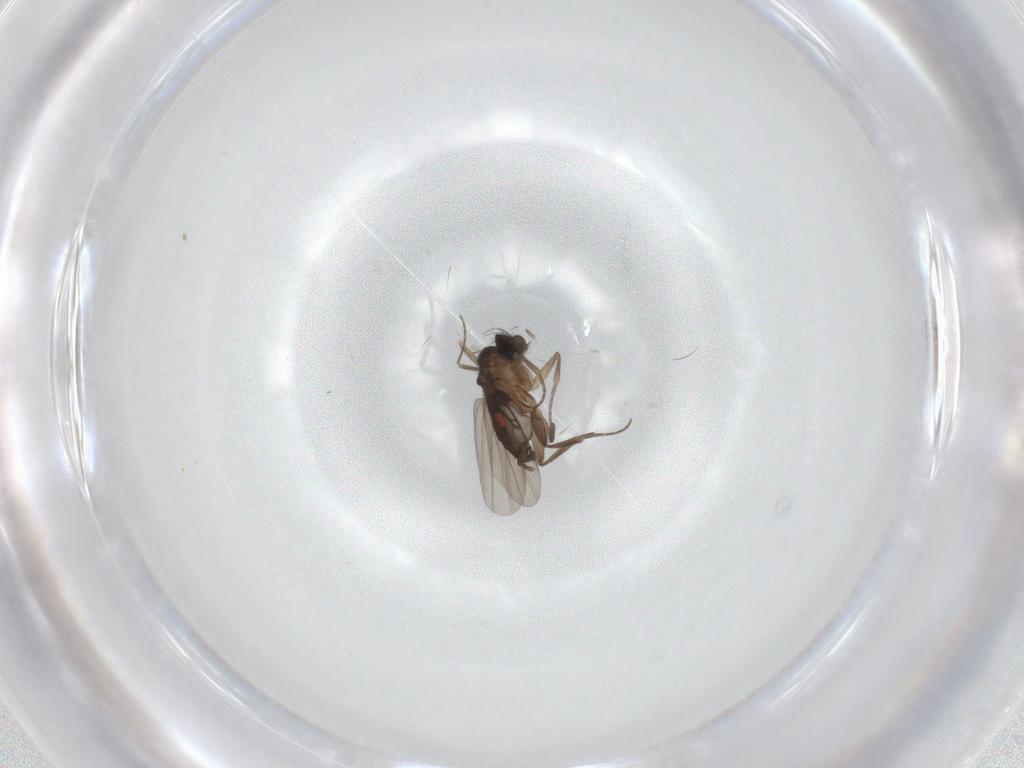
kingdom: Animalia
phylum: Arthropoda
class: Insecta
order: Diptera
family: Phoridae
